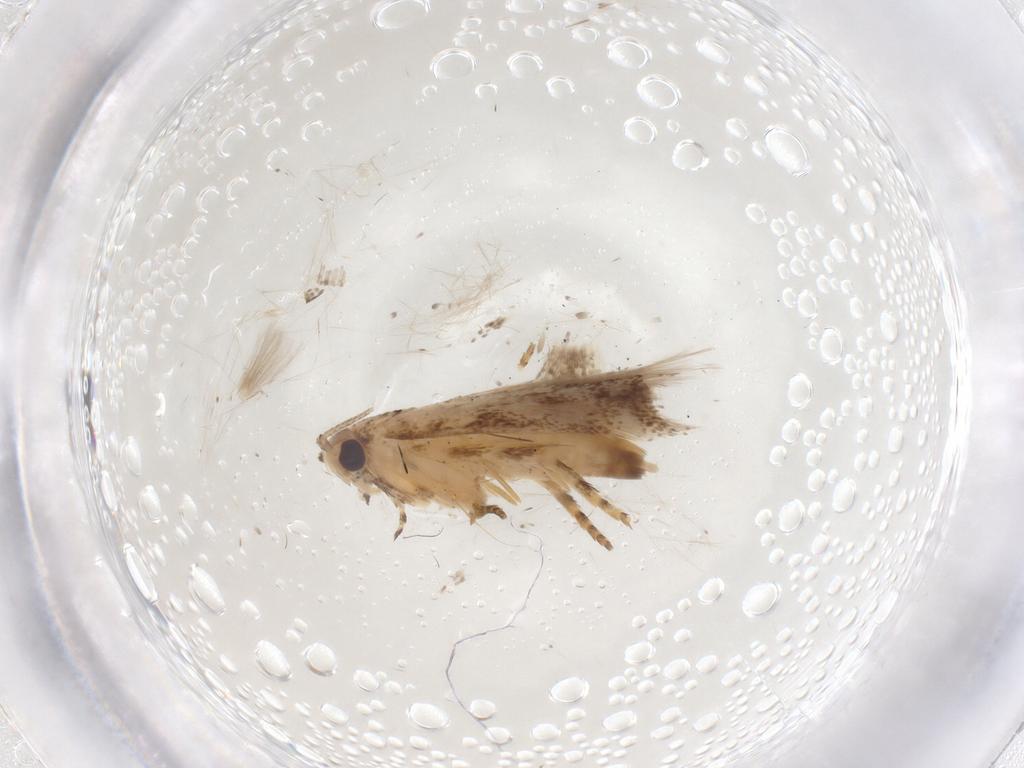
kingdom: Animalia
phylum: Arthropoda
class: Insecta
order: Lepidoptera
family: Gelechiidae
